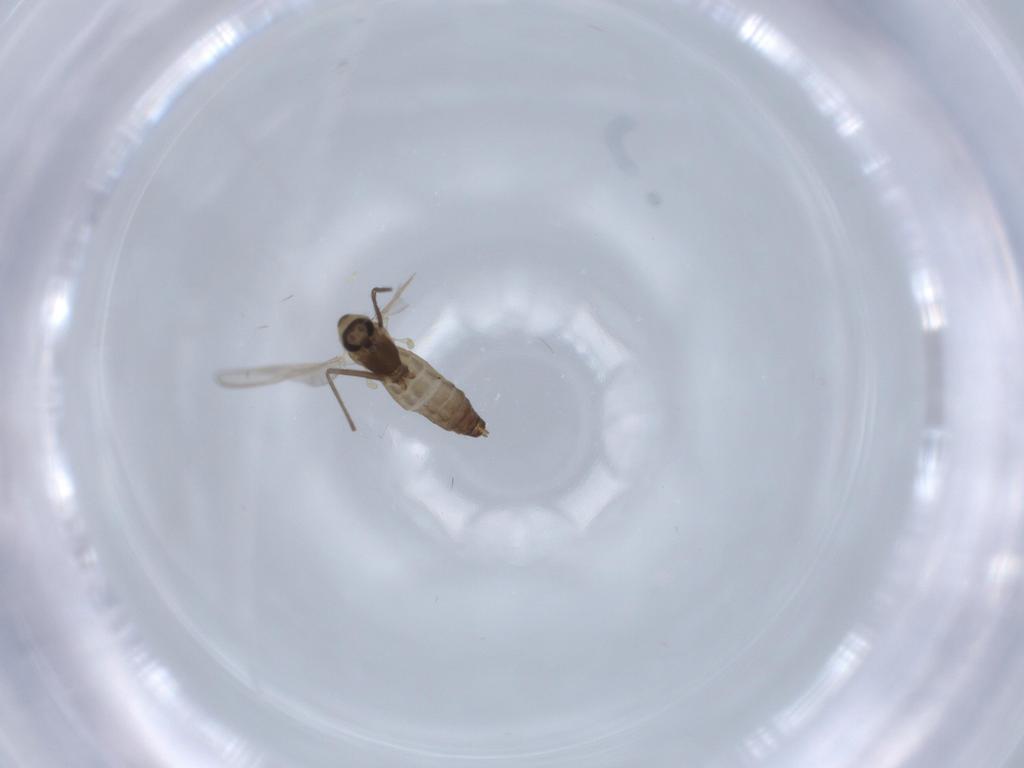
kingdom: Animalia
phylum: Arthropoda
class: Insecta
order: Diptera
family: Chironomidae
